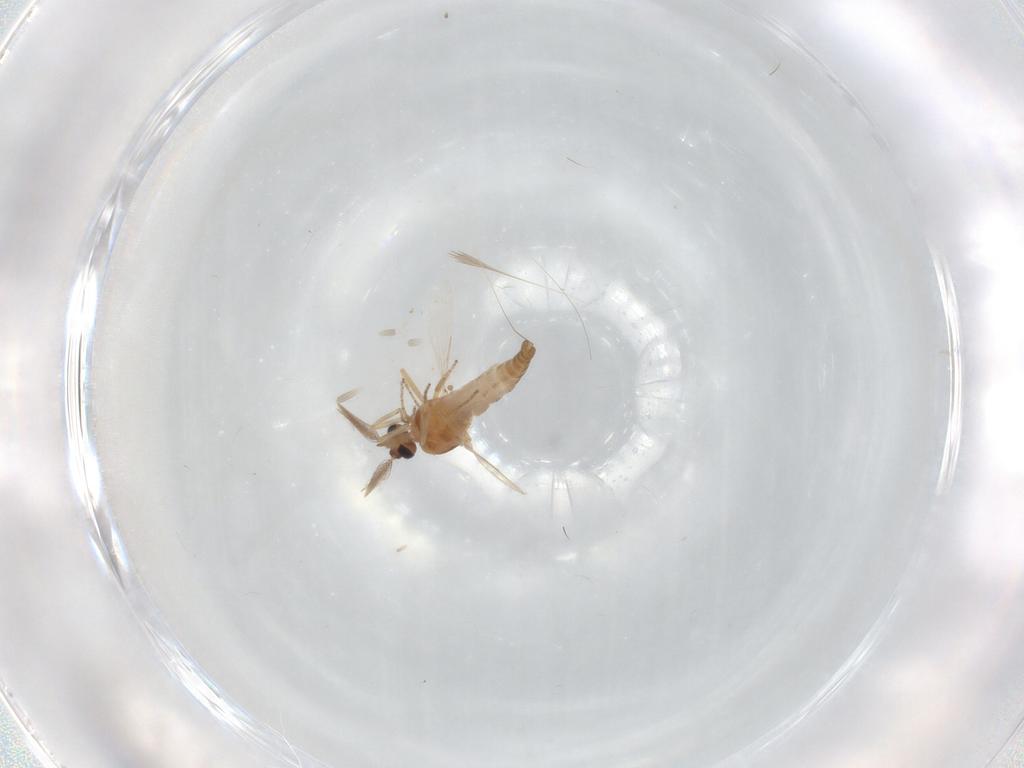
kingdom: Animalia
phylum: Arthropoda
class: Insecta
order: Diptera
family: Ceratopogonidae
